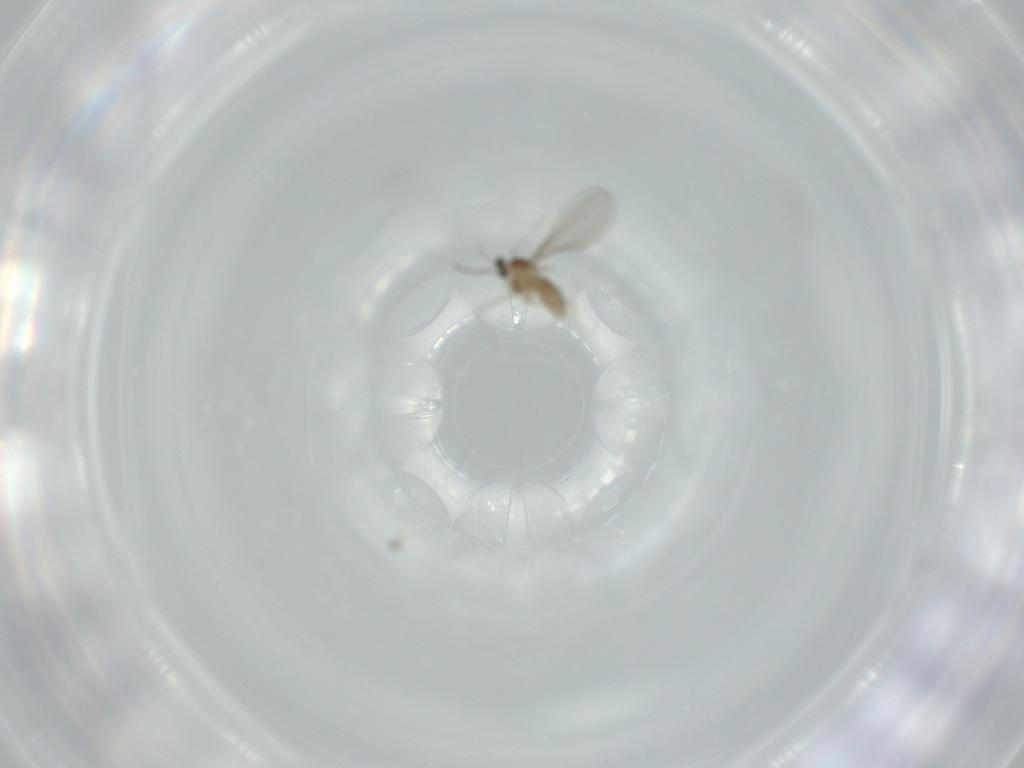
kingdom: Animalia
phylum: Arthropoda
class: Insecta
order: Diptera
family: Cecidomyiidae
